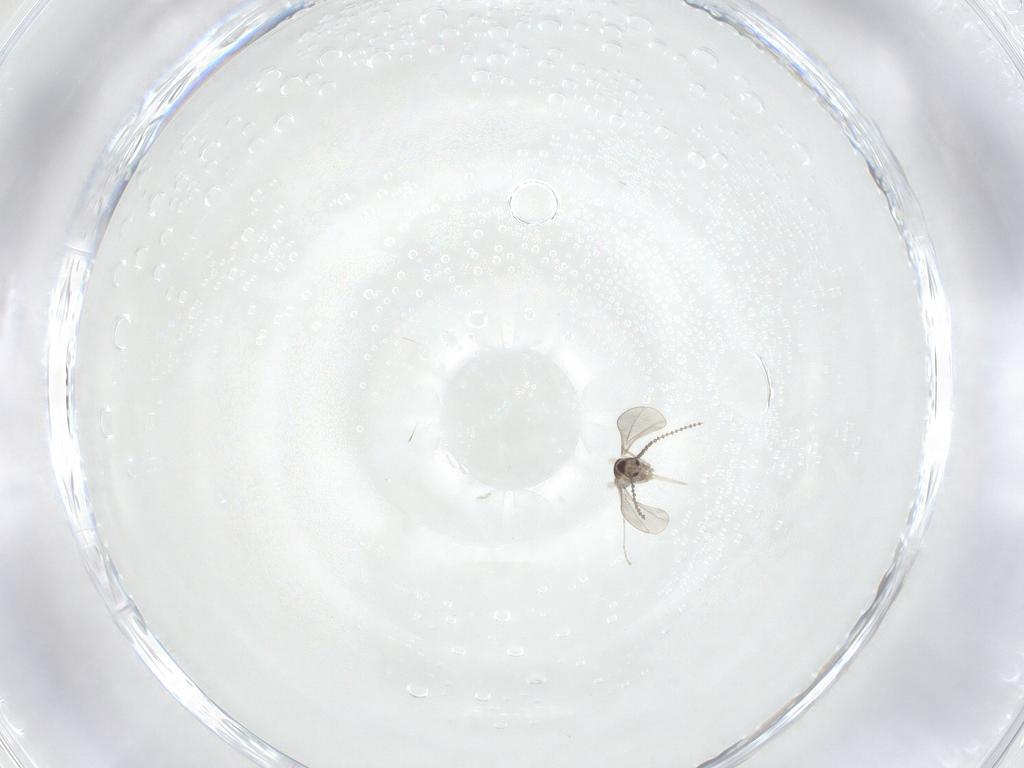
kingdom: Animalia
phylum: Arthropoda
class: Insecta
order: Diptera
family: Cecidomyiidae
